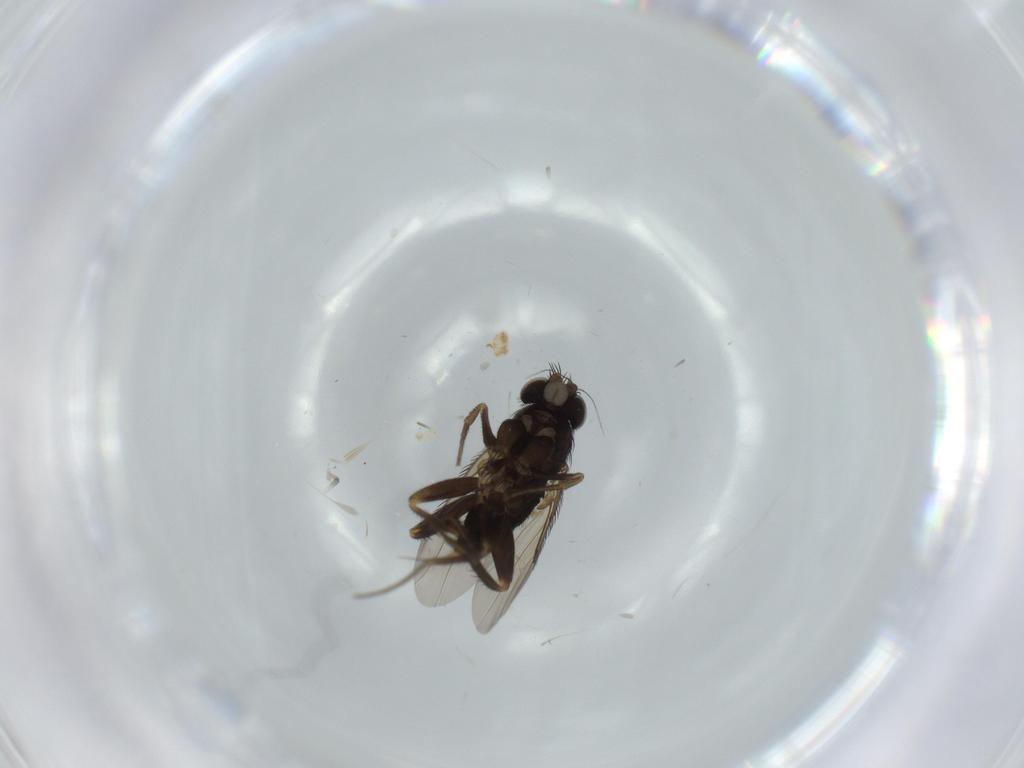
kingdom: Animalia
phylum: Arthropoda
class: Insecta
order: Diptera
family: Phoridae
